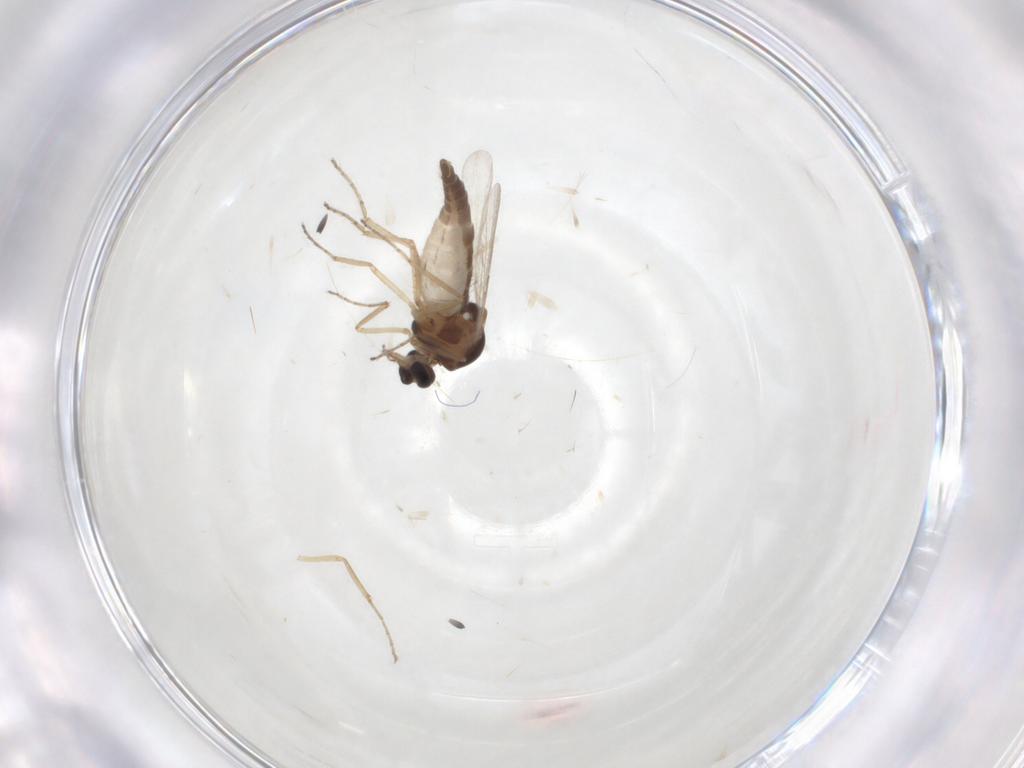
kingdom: Animalia
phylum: Arthropoda
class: Insecta
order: Diptera
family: Ceratopogonidae
